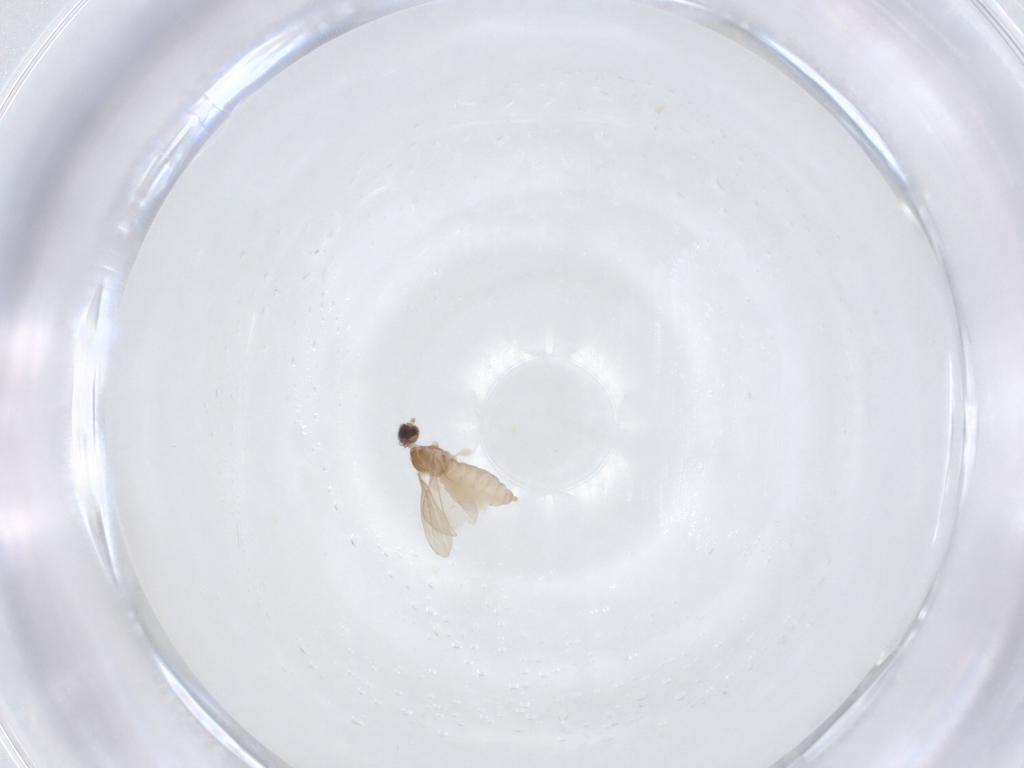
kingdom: Animalia
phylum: Arthropoda
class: Insecta
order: Diptera
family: Cecidomyiidae
